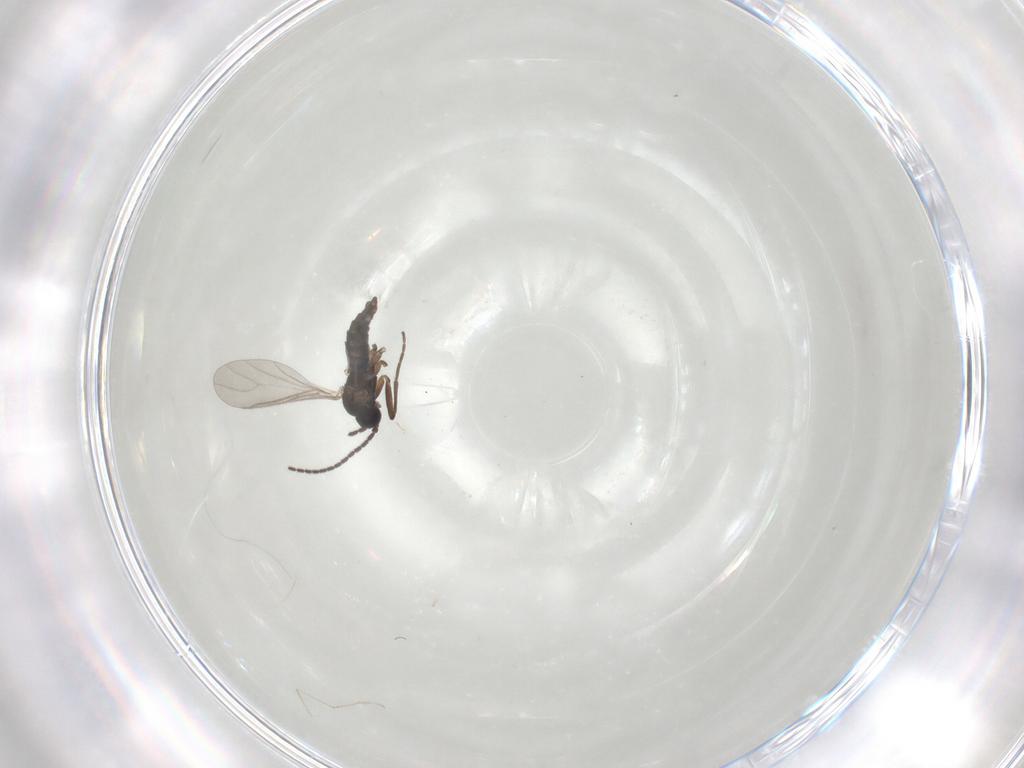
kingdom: Animalia
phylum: Arthropoda
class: Insecta
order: Diptera
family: Sciaridae
